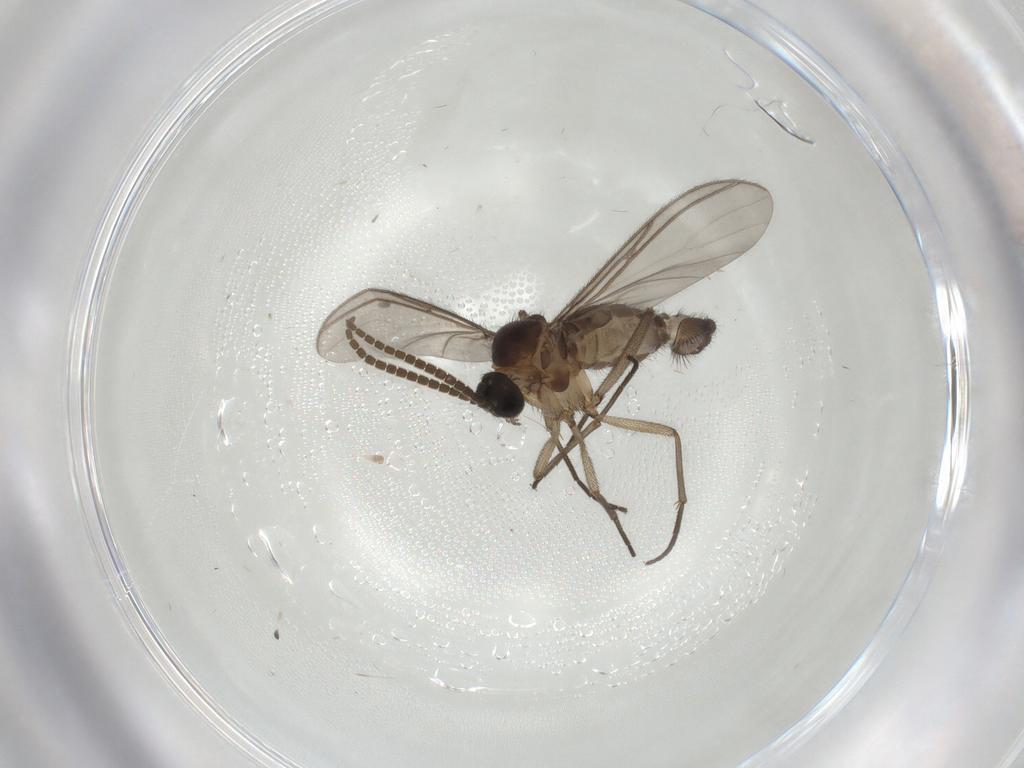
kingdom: Animalia
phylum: Arthropoda
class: Insecta
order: Diptera
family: Sciaridae
